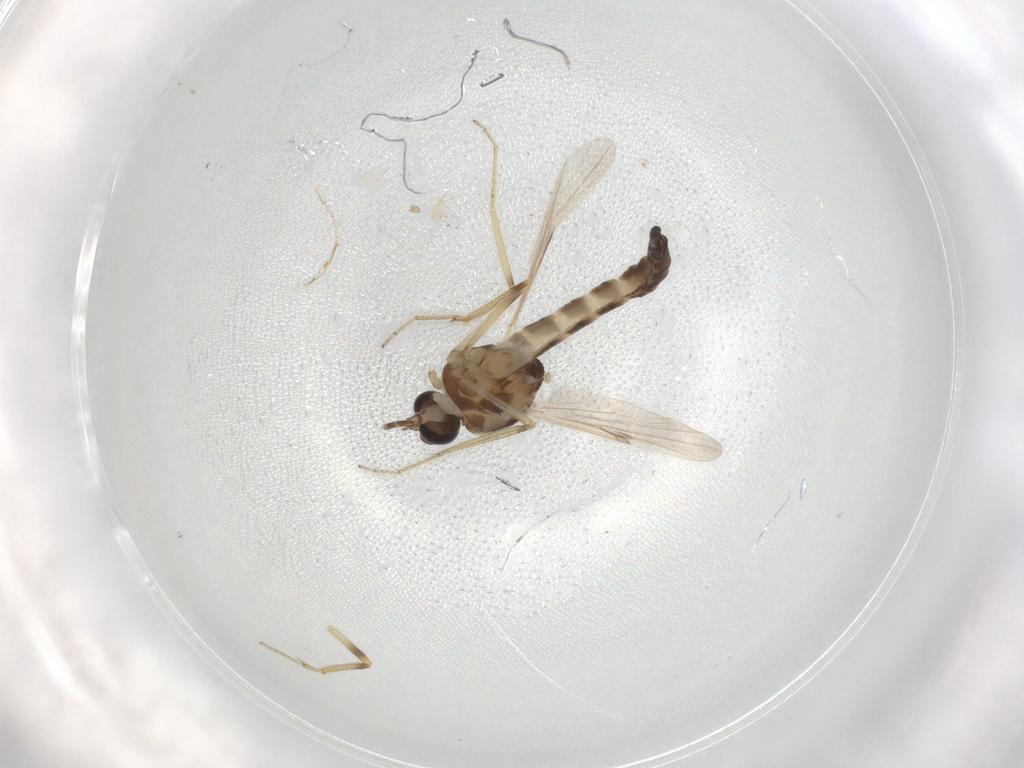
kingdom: Animalia
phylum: Arthropoda
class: Insecta
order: Diptera
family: Ceratopogonidae
